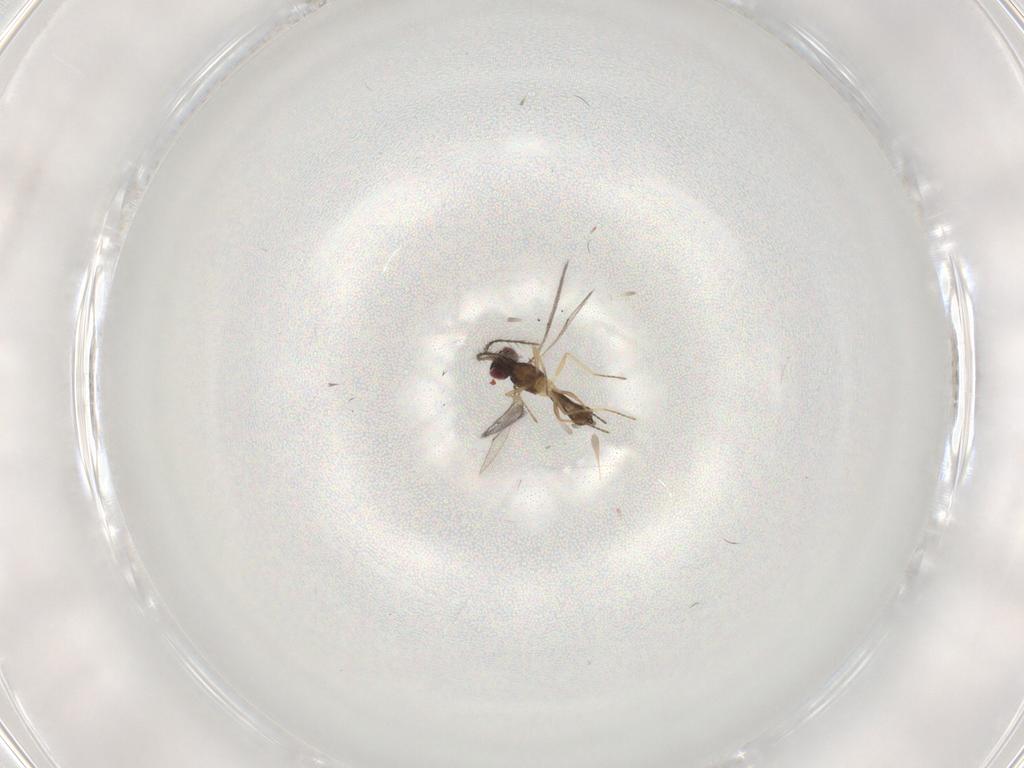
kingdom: Animalia
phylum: Arthropoda
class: Insecta
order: Hymenoptera
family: Eulophidae
